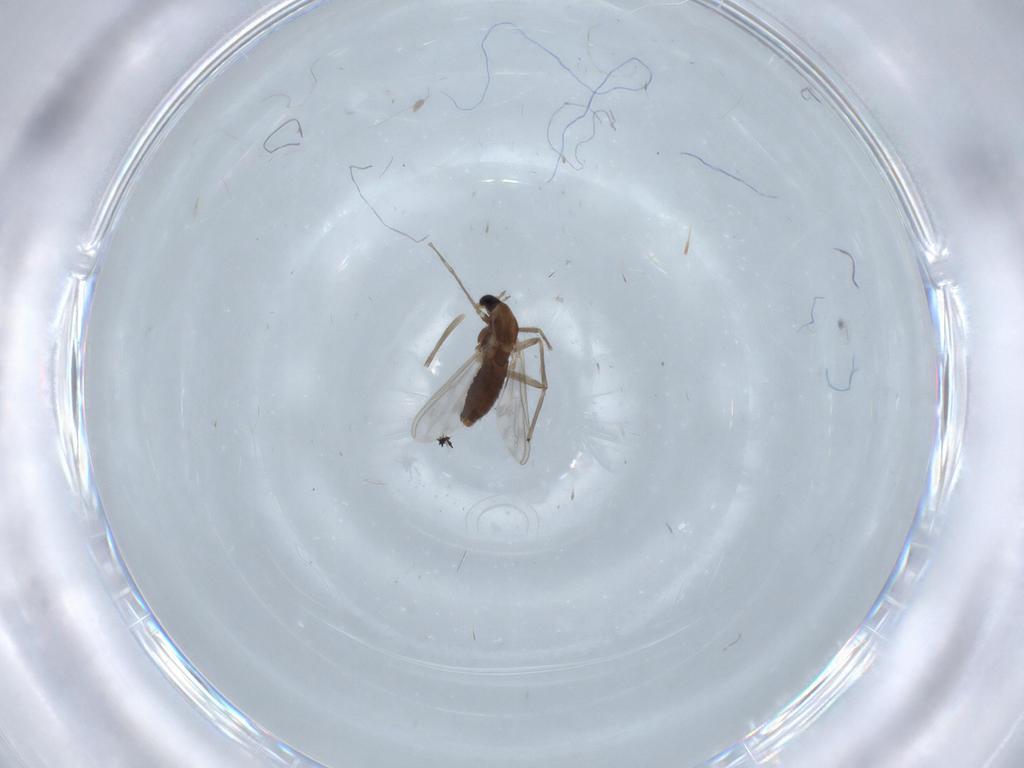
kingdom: Animalia
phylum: Arthropoda
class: Insecta
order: Diptera
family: Chironomidae
